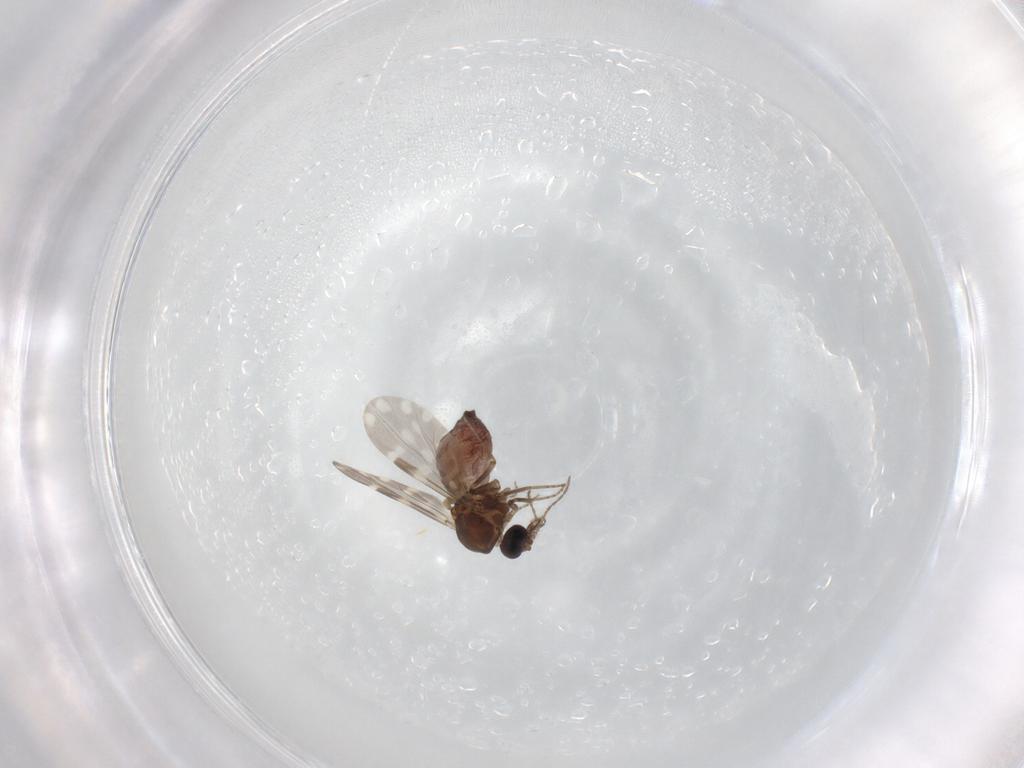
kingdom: Animalia
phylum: Arthropoda
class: Insecta
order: Diptera
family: Ceratopogonidae
